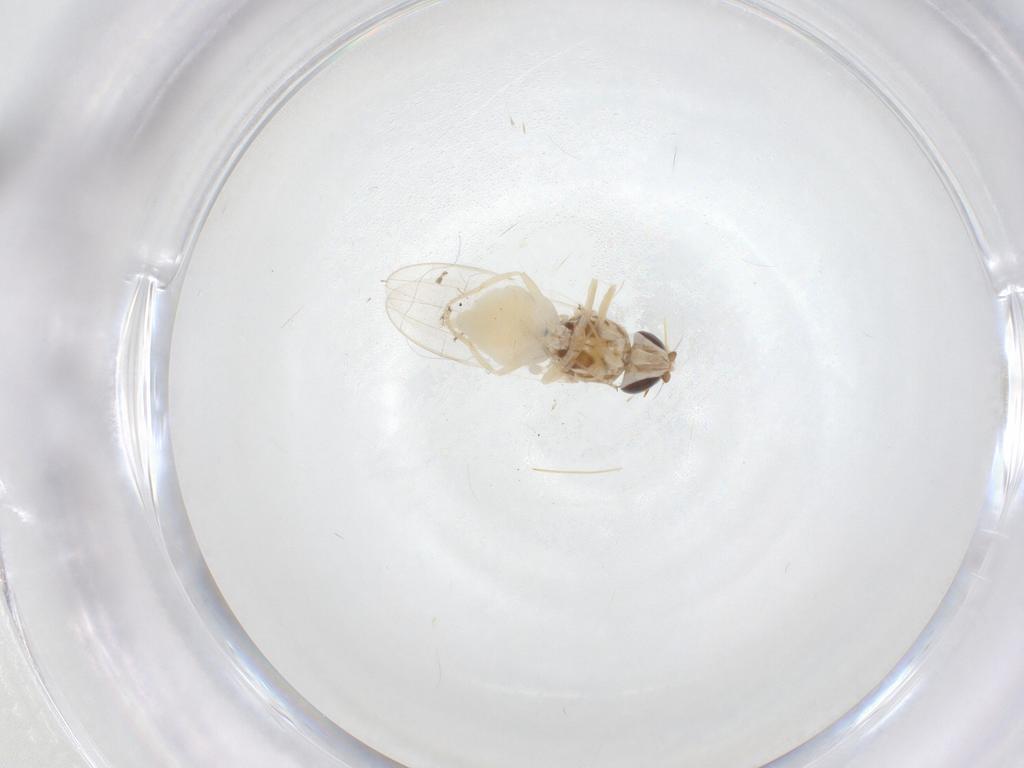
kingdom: Animalia
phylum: Arthropoda
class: Insecta
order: Diptera
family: Chloropidae
